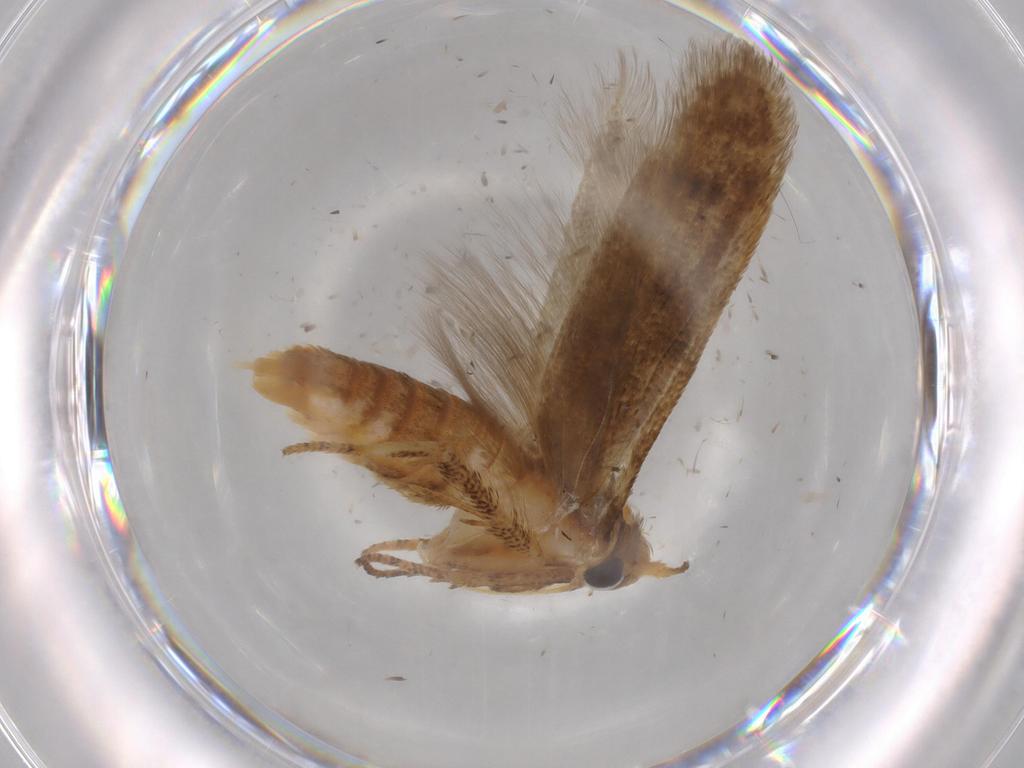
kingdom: Animalia
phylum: Arthropoda
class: Insecta
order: Lepidoptera
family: Blastobasidae
